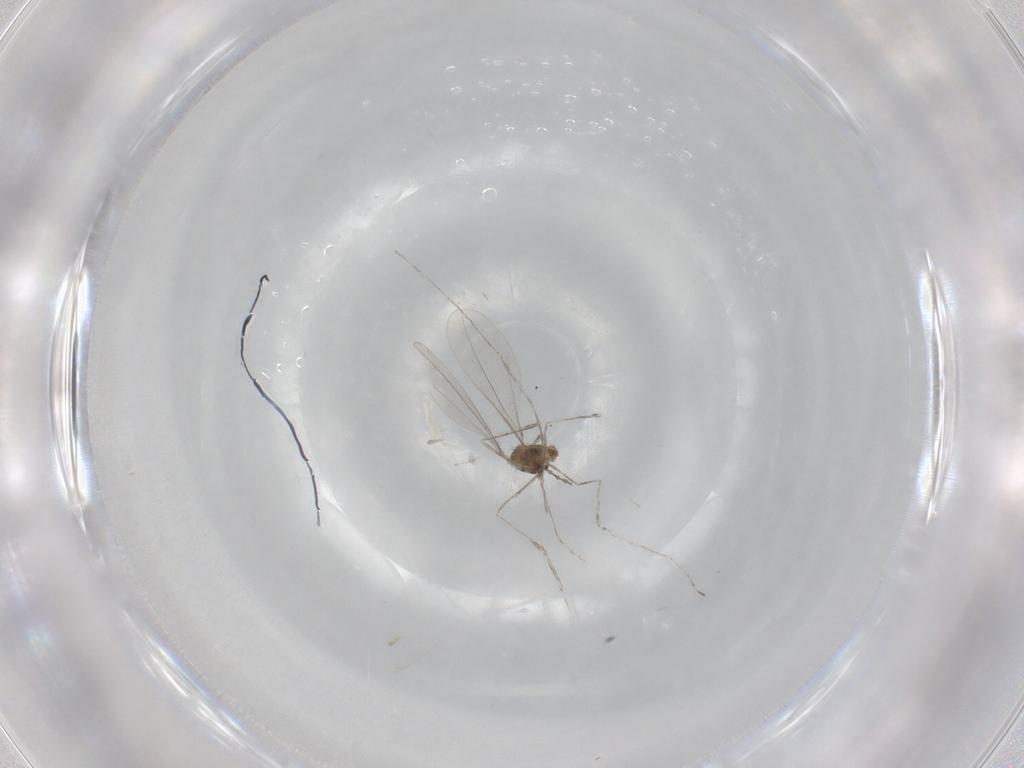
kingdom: Animalia
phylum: Arthropoda
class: Insecta
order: Diptera
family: Cecidomyiidae
